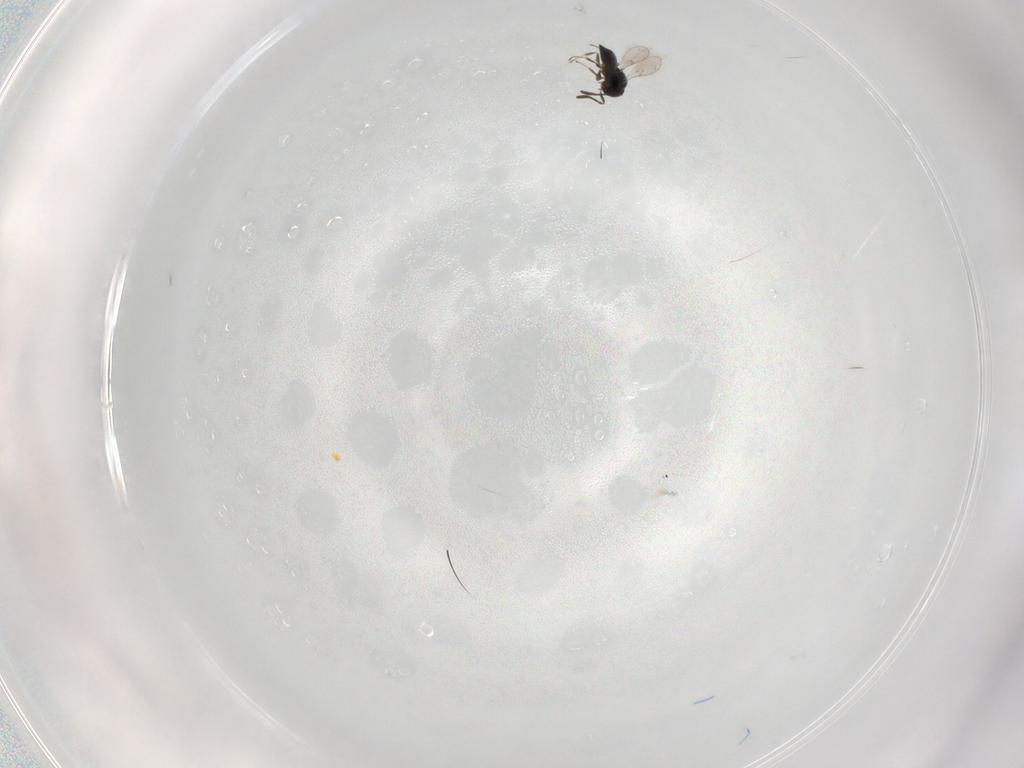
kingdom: Animalia
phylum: Arthropoda
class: Insecta
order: Hymenoptera
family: Scelionidae
